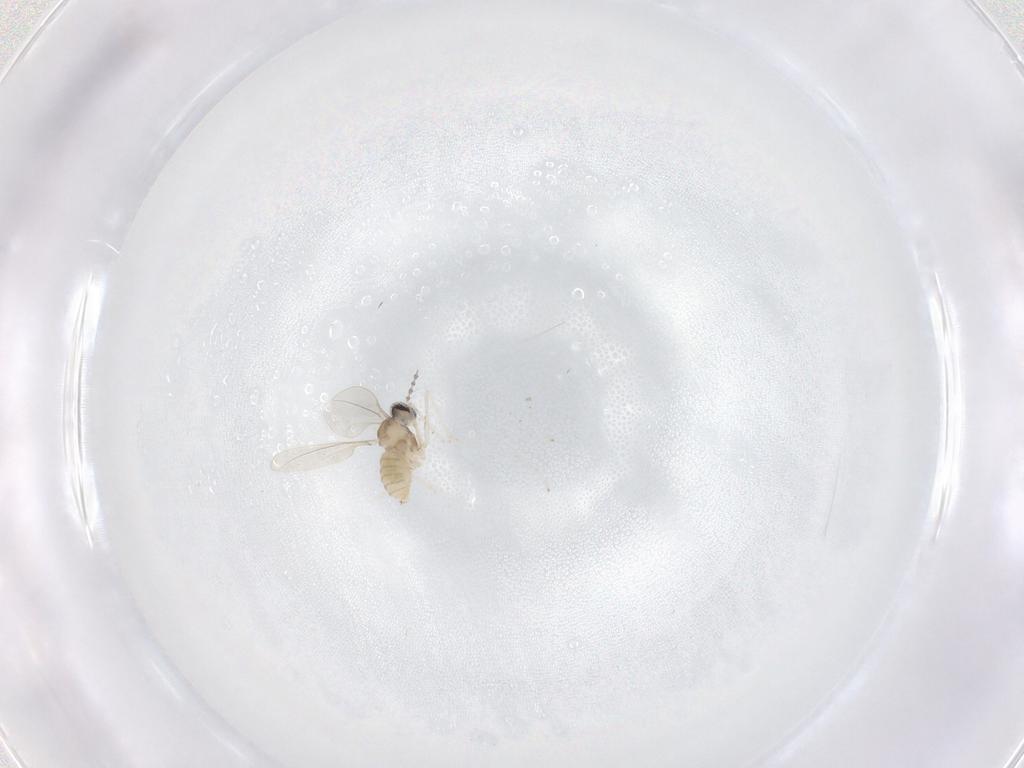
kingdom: Animalia
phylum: Arthropoda
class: Insecta
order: Diptera
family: Cecidomyiidae
